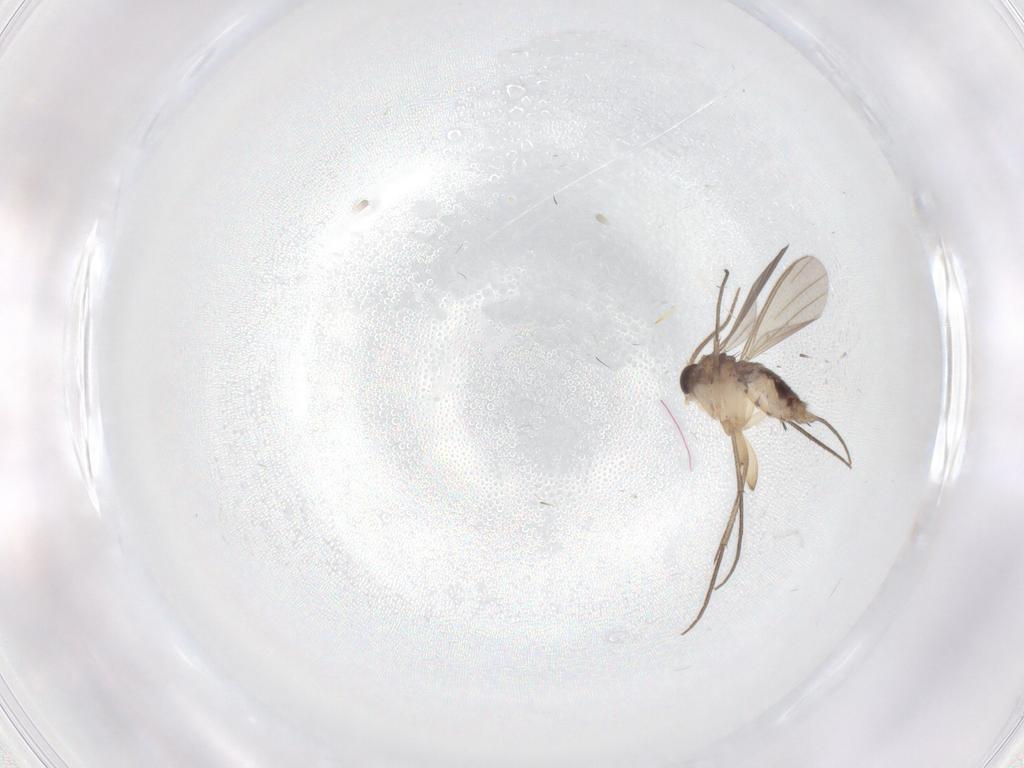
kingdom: Animalia
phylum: Arthropoda
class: Insecta
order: Diptera
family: Mycetophilidae
